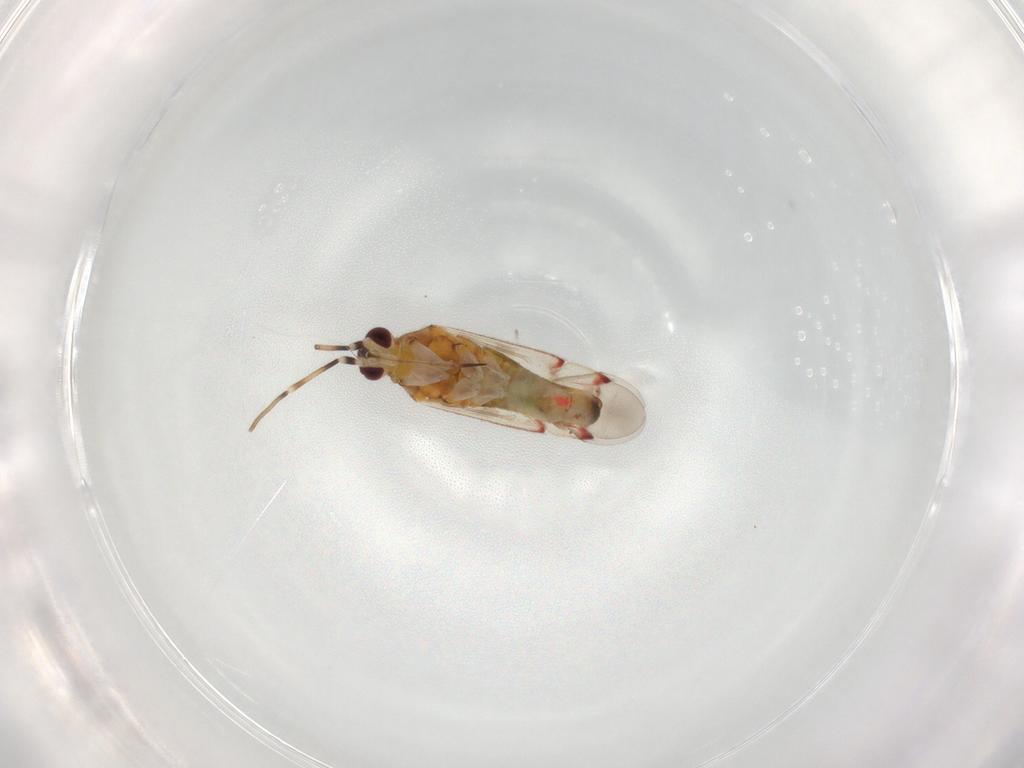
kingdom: Animalia
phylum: Arthropoda
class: Insecta
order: Hemiptera
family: Miridae
